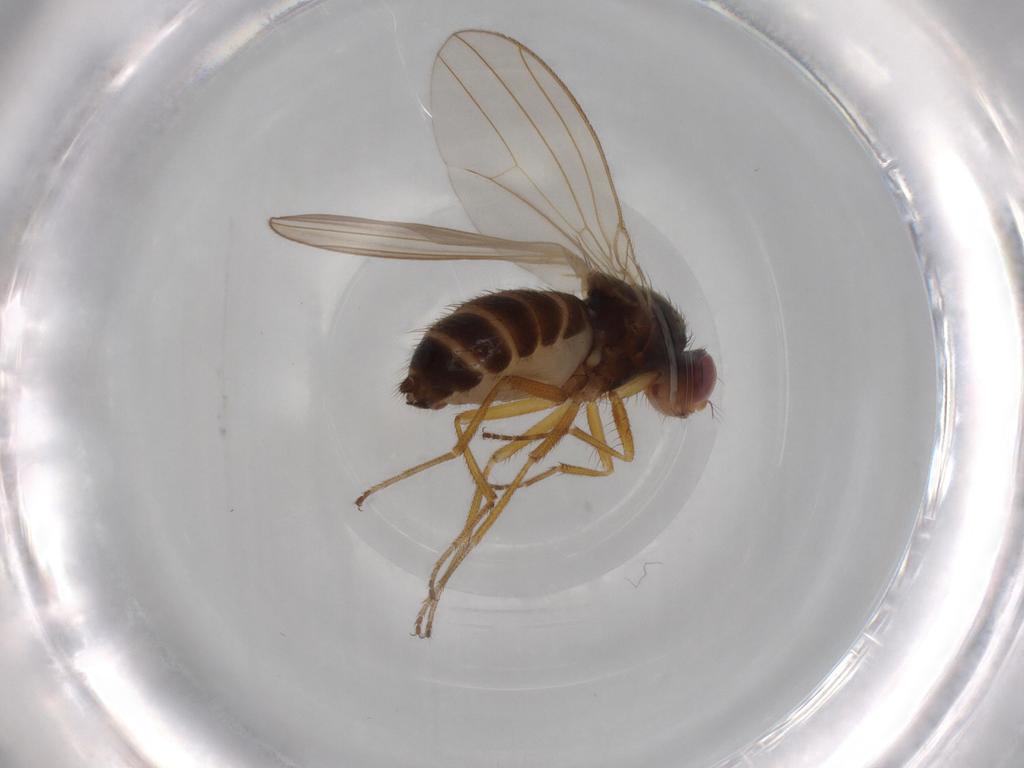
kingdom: Animalia
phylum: Arthropoda
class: Insecta
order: Diptera
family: Drosophilidae
